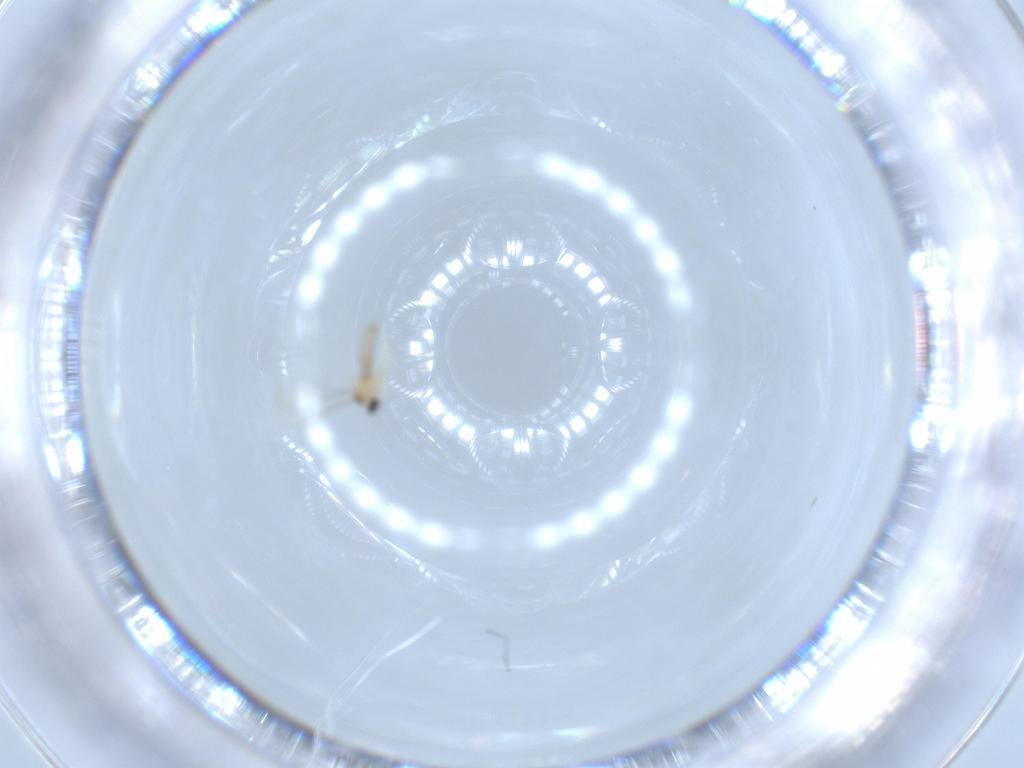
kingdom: Animalia
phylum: Arthropoda
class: Insecta
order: Diptera
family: Cecidomyiidae
